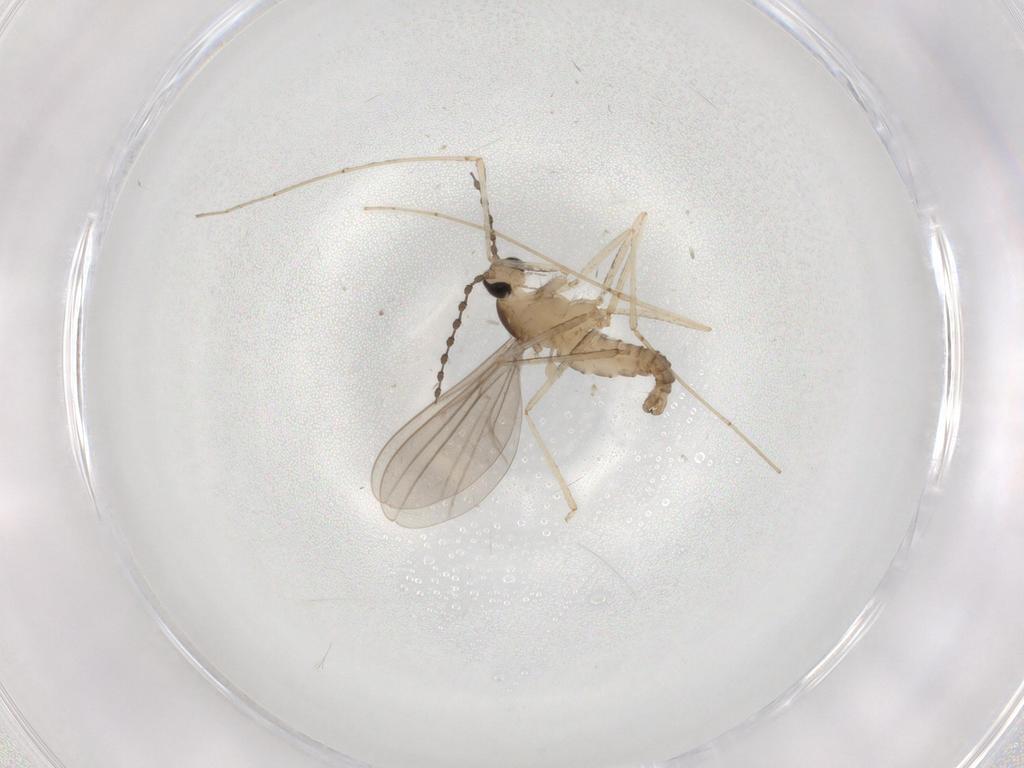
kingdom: Animalia
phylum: Arthropoda
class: Insecta
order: Diptera
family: Cecidomyiidae
